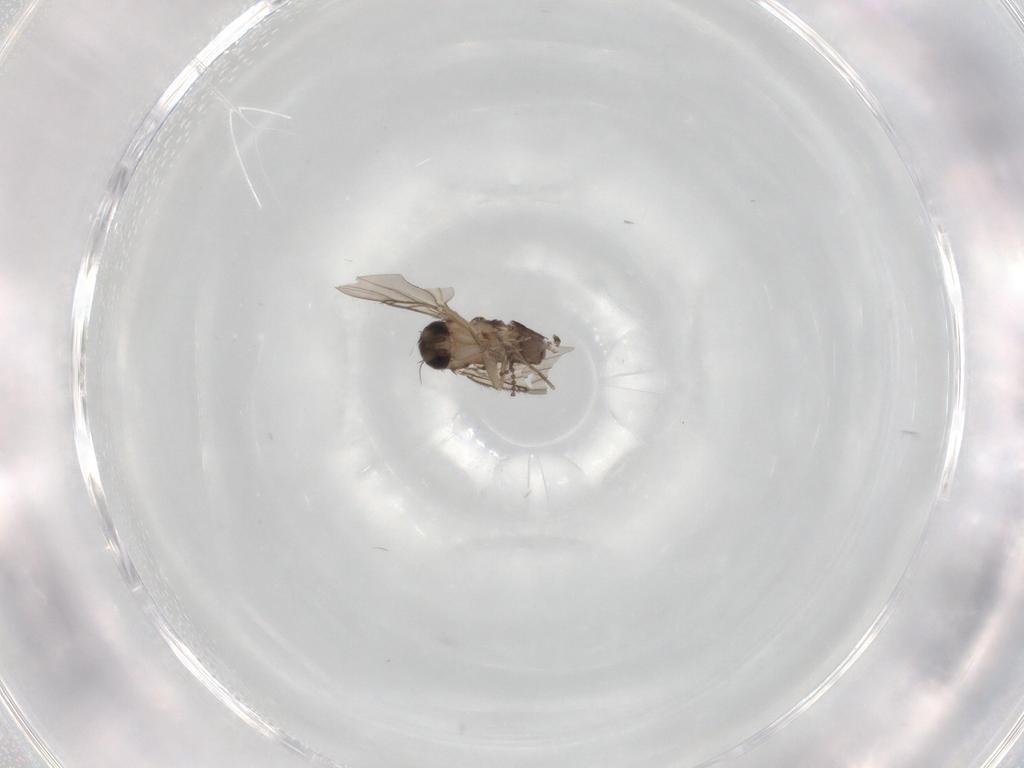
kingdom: Animalia
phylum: Arthropoda
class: Insecta
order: Diptera
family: Cecidomyiidae
